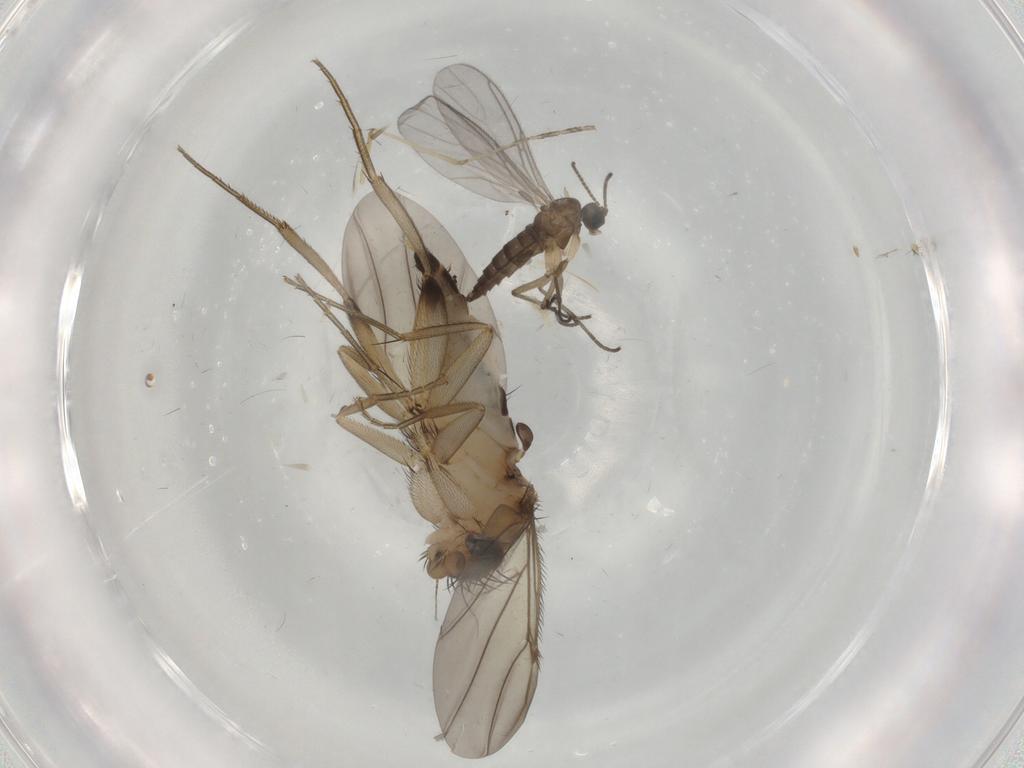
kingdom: Animalia
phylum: Arthropoda
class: Insecta
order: Diptera
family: Sciaridae
